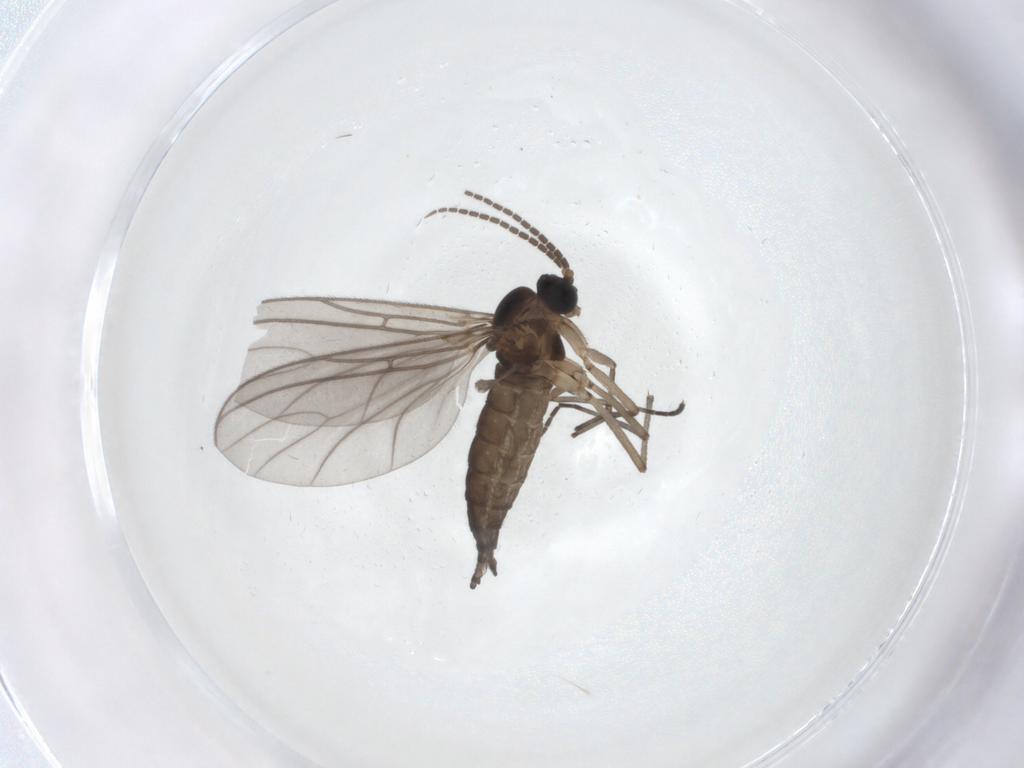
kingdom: Animalia
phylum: Arthropoda
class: Insecta
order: Diptera
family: Sciaridae
